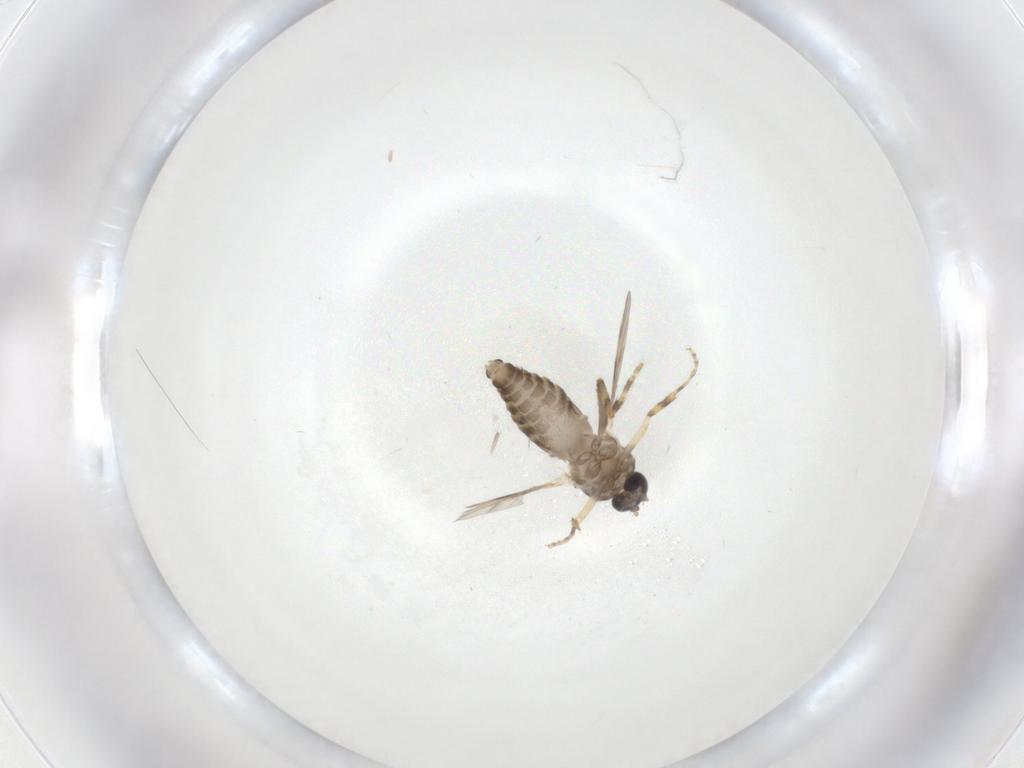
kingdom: Animalia
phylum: Arthropoda
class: Insecta
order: Diptera
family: Ceratopogonidae
